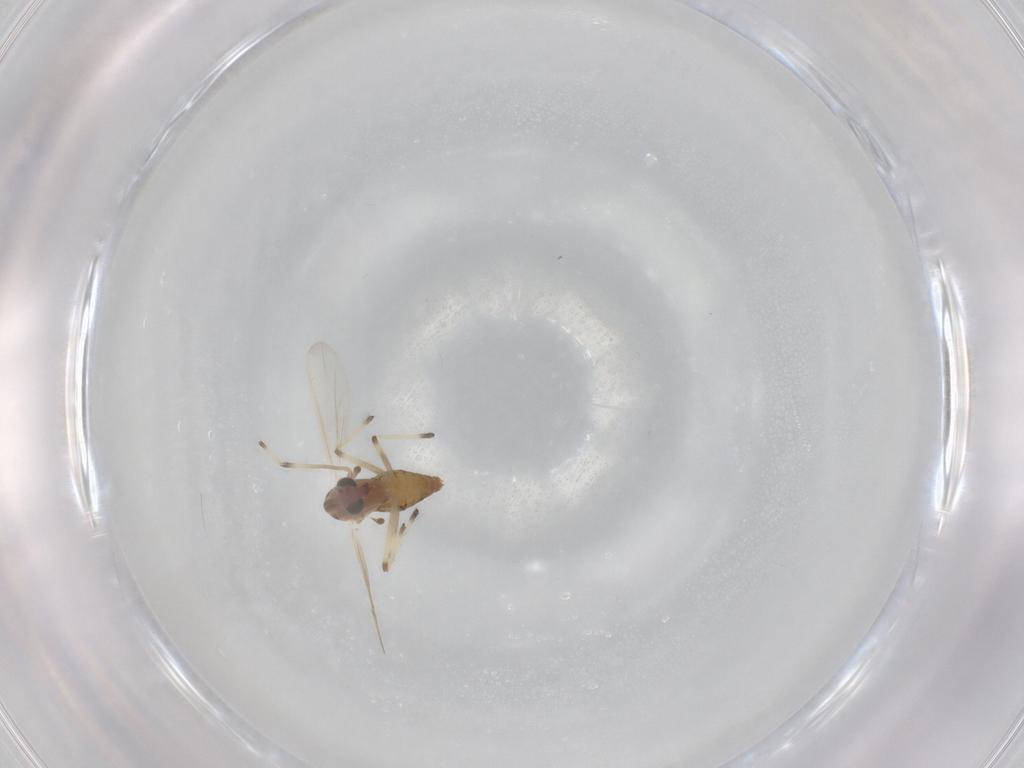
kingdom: Animalia
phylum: Arthropoda
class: Insecta
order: Diptera
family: Chironomidae
